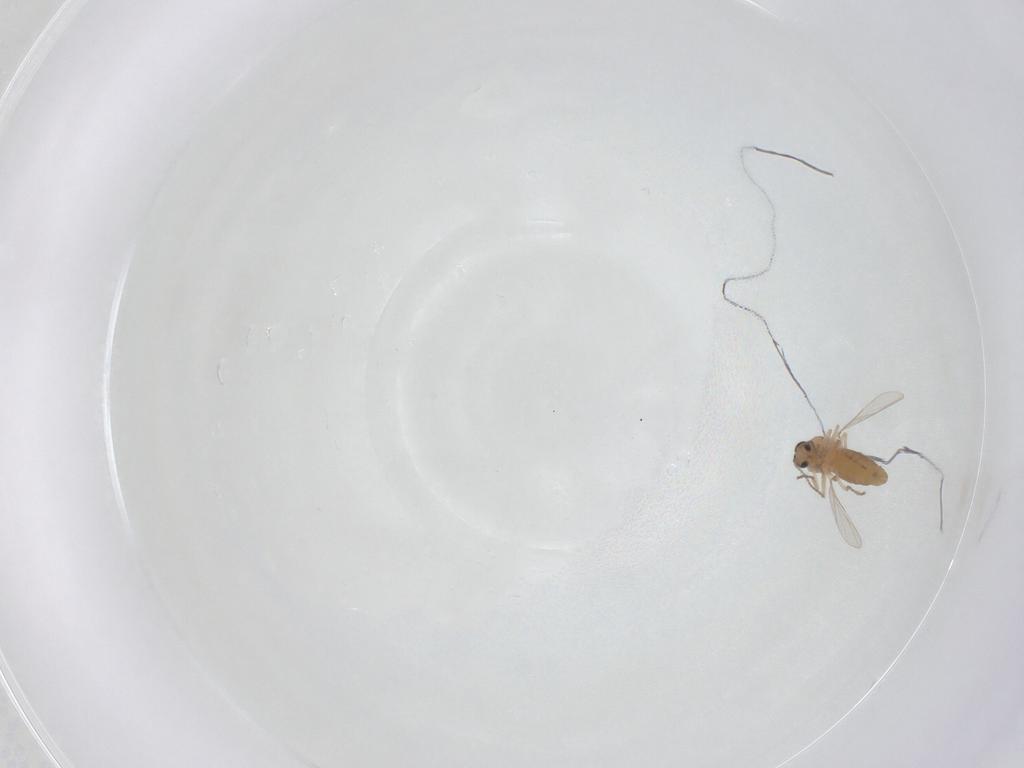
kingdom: Animalia
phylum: Arthropoda
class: Insecta
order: Diptera
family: Ceratopogonidae
